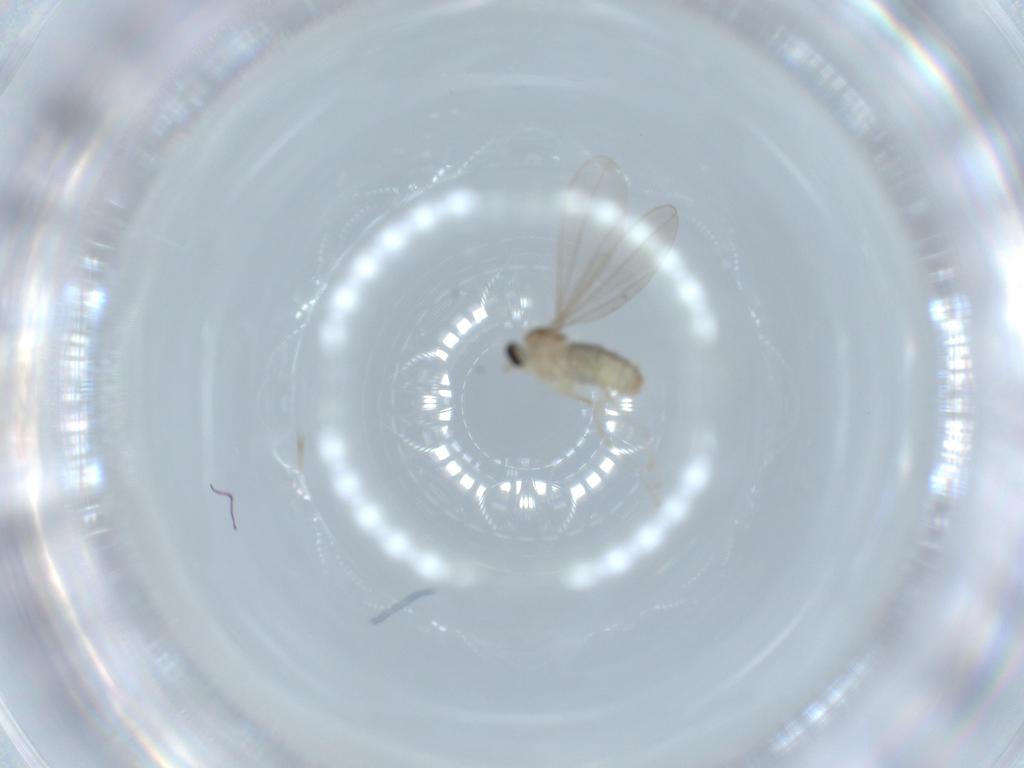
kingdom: Animalia
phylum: Arthropoda
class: Insecta
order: Diptera
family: Cecidomyiidae
